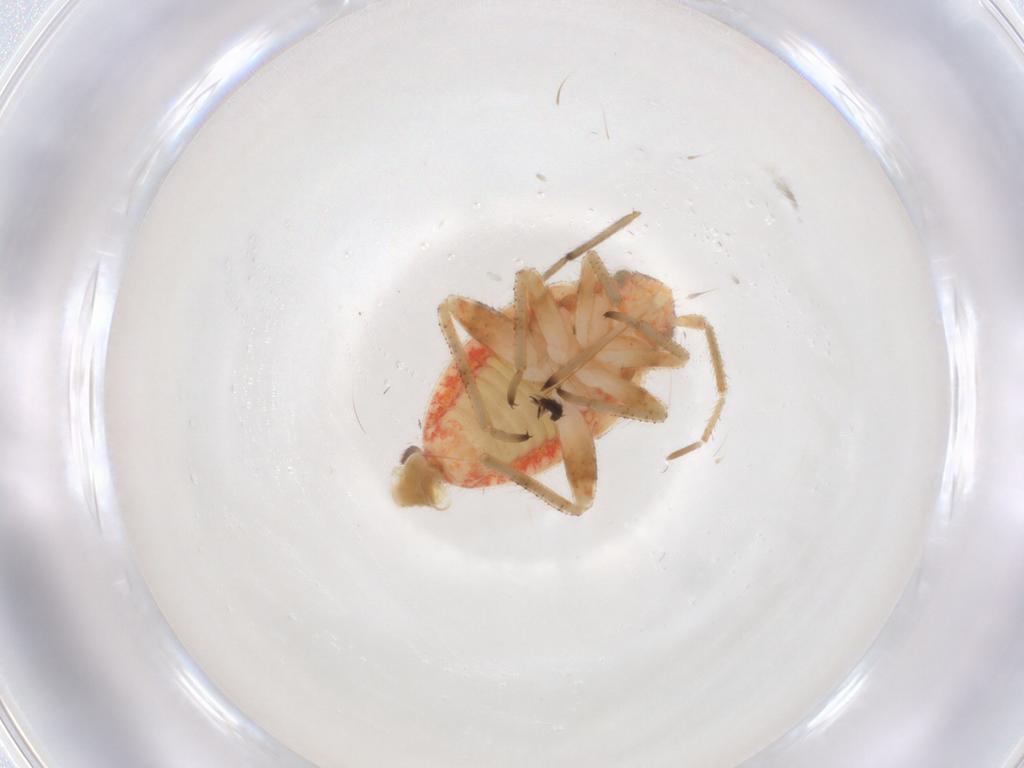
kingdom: Animalia
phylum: Arthropoda
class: Insecta
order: Hemiptera
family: Miridae
